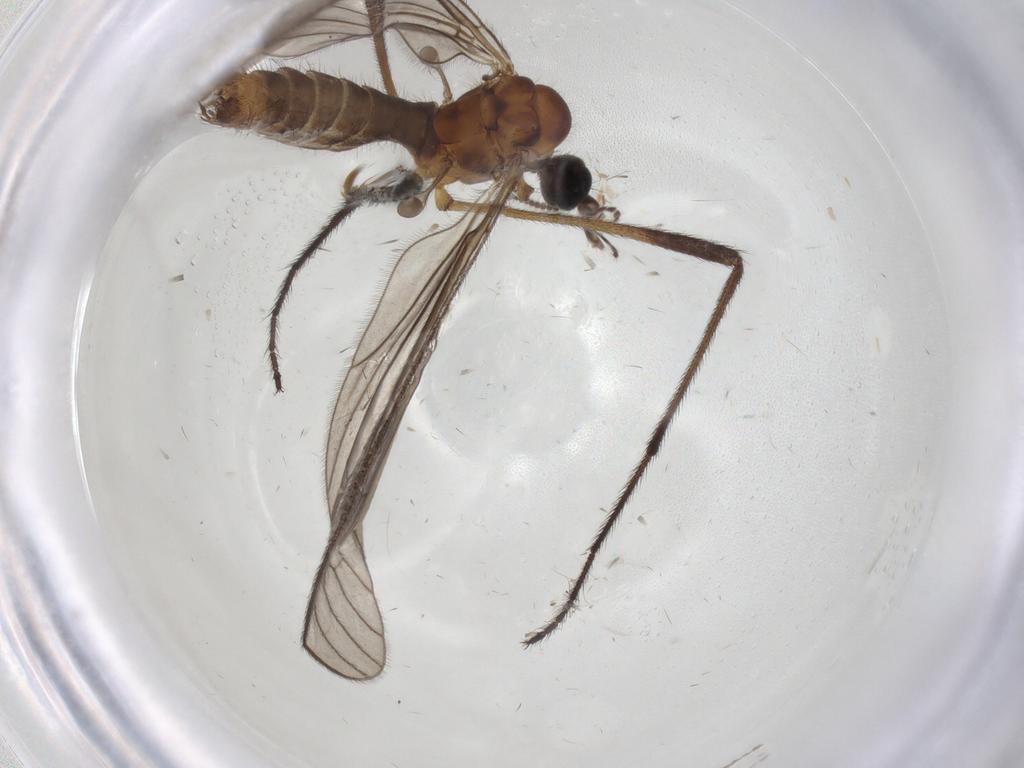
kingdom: Animalia
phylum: Arthropoda
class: Insecta
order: Diptera
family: Limoniidae
